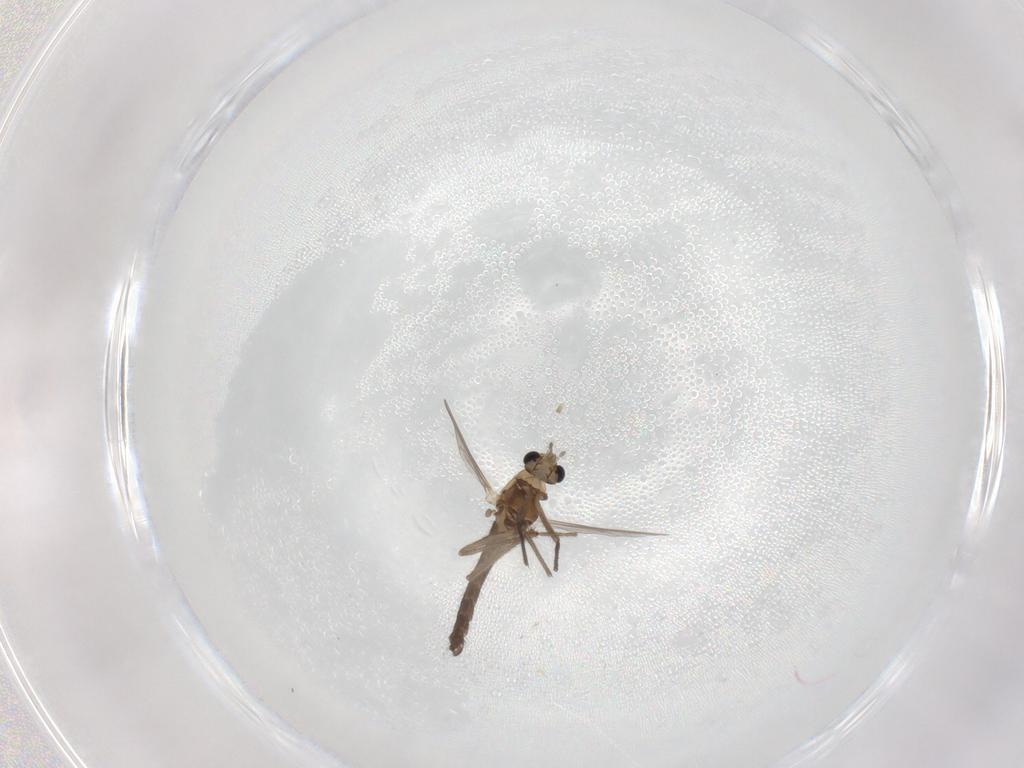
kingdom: Animalia
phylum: Arthropoda
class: Insecta
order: Diptera
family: Chironomidae
